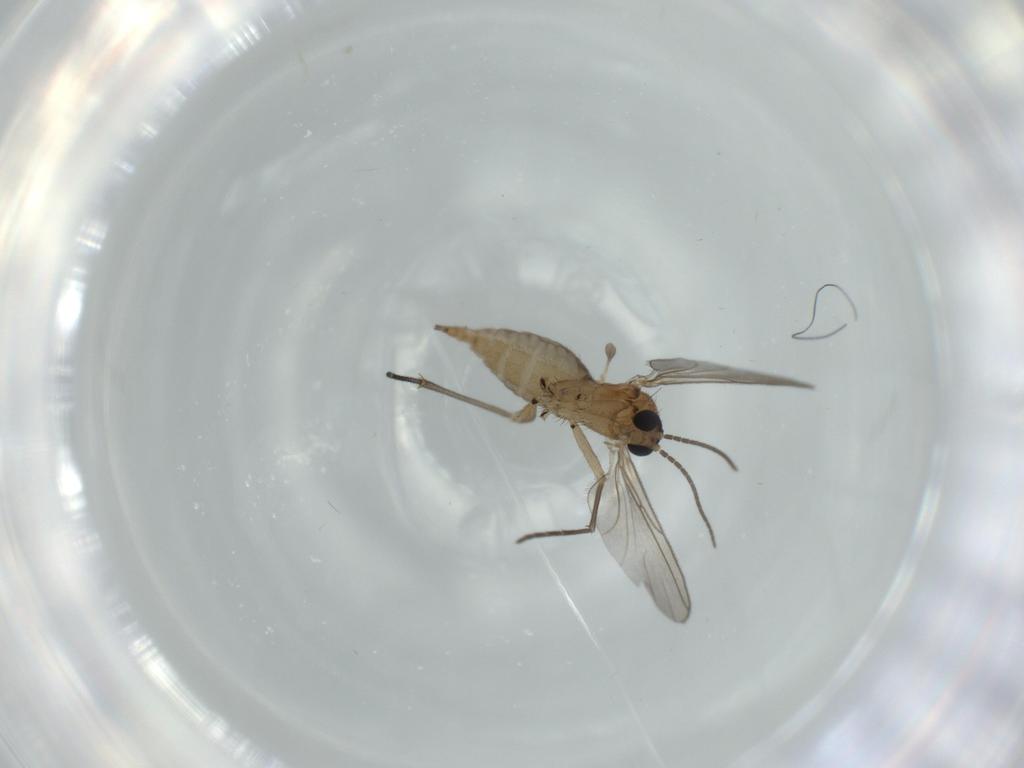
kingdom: Animalia
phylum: Arthropoda
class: Insecta
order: Diptera
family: Sciaridae
